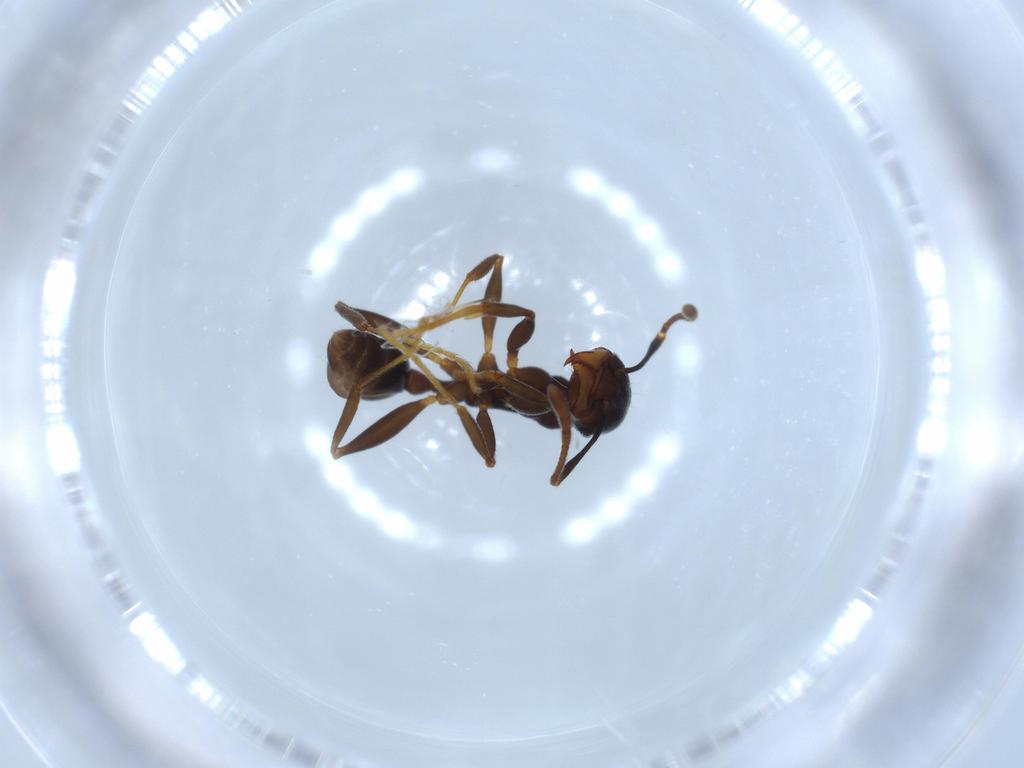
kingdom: Animalia
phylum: Arthropoda
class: Insecta
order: Hymenoptera
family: Formicidae
